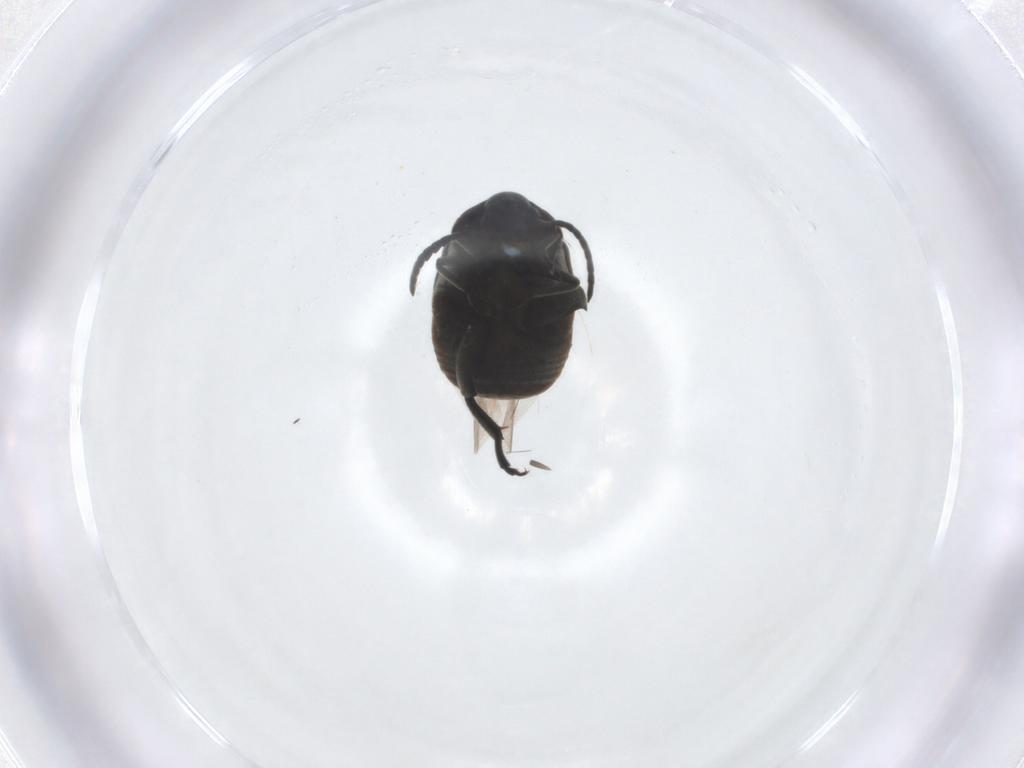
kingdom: Animalia
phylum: Arthropoda
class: Insecta
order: Coleoptera
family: Chrysomelidae
